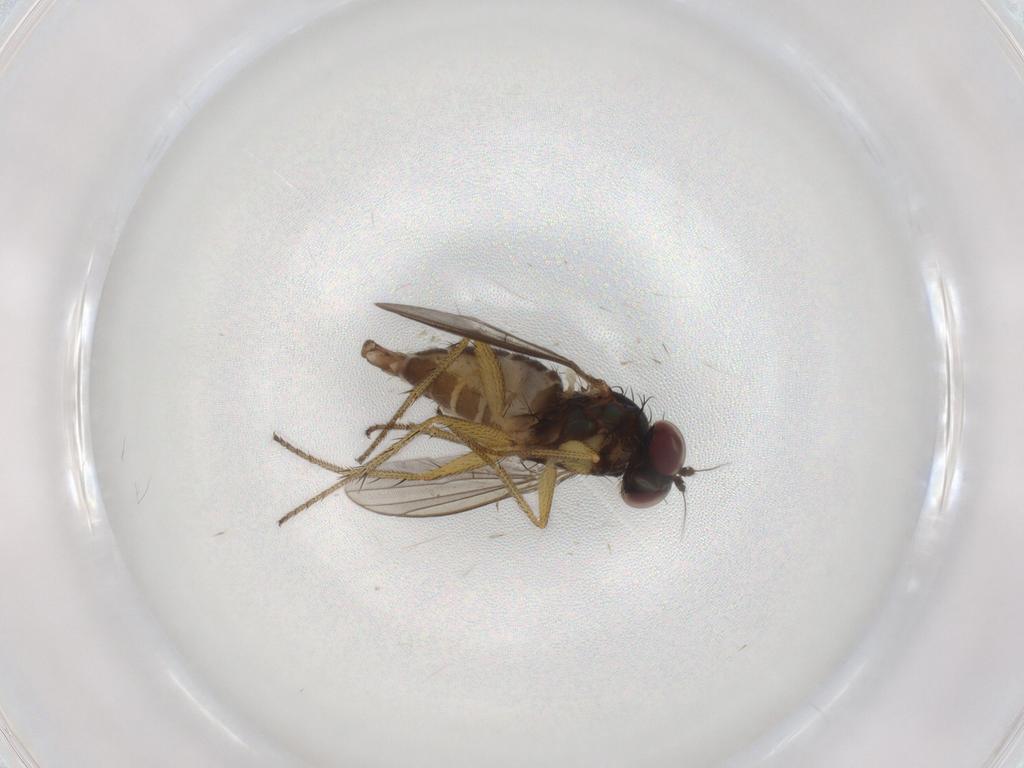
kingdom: Animalia
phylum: Arthropoda
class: Insecta
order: Diptera
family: Dolichopodidae
